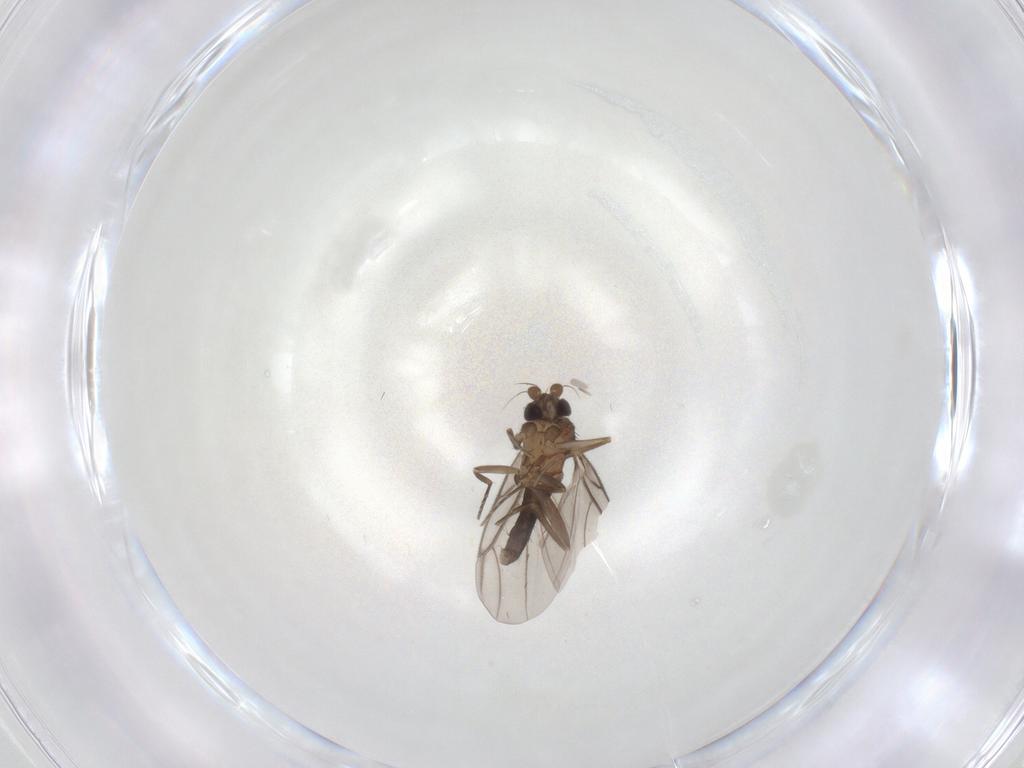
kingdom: Animalia
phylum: Arthropoda
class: Insecta
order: Diptera
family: Phoridae
